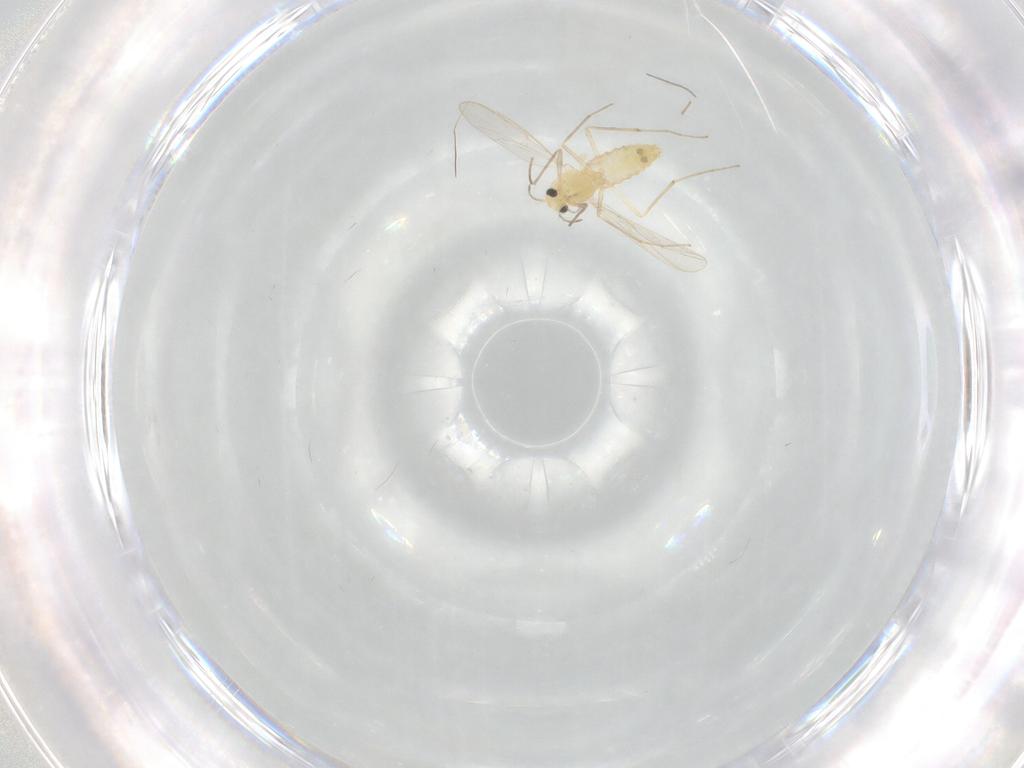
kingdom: Animalia
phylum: Arthropoda
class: Insecta
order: Diptera
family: Chironomidae
